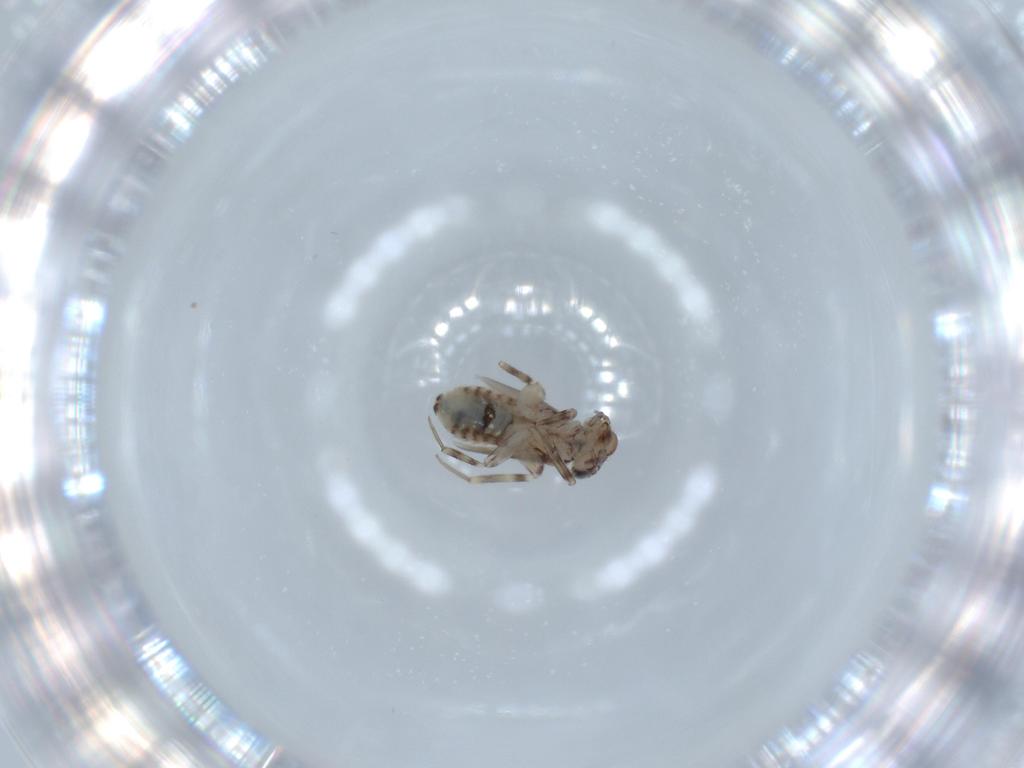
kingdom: Animalia
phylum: Arthropoda
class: Insecta
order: Psocodea
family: Lepidopsocidae
